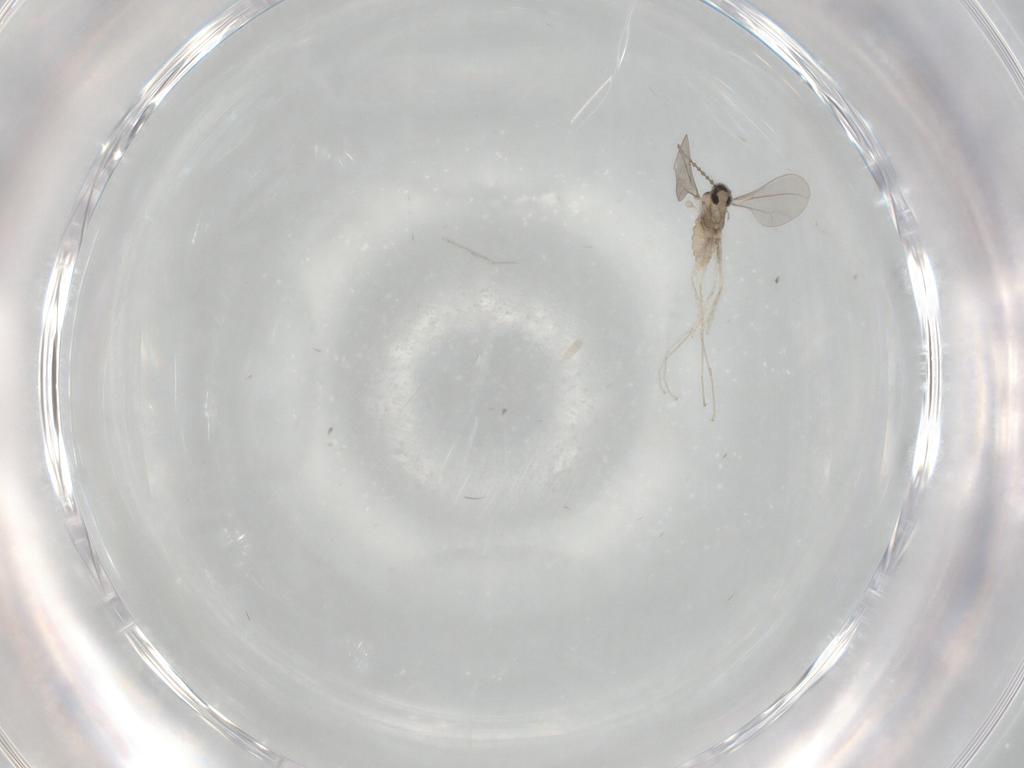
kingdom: Animalia
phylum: Arthropoda
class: Insecta
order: Diptera
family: Cecidomyiidae
